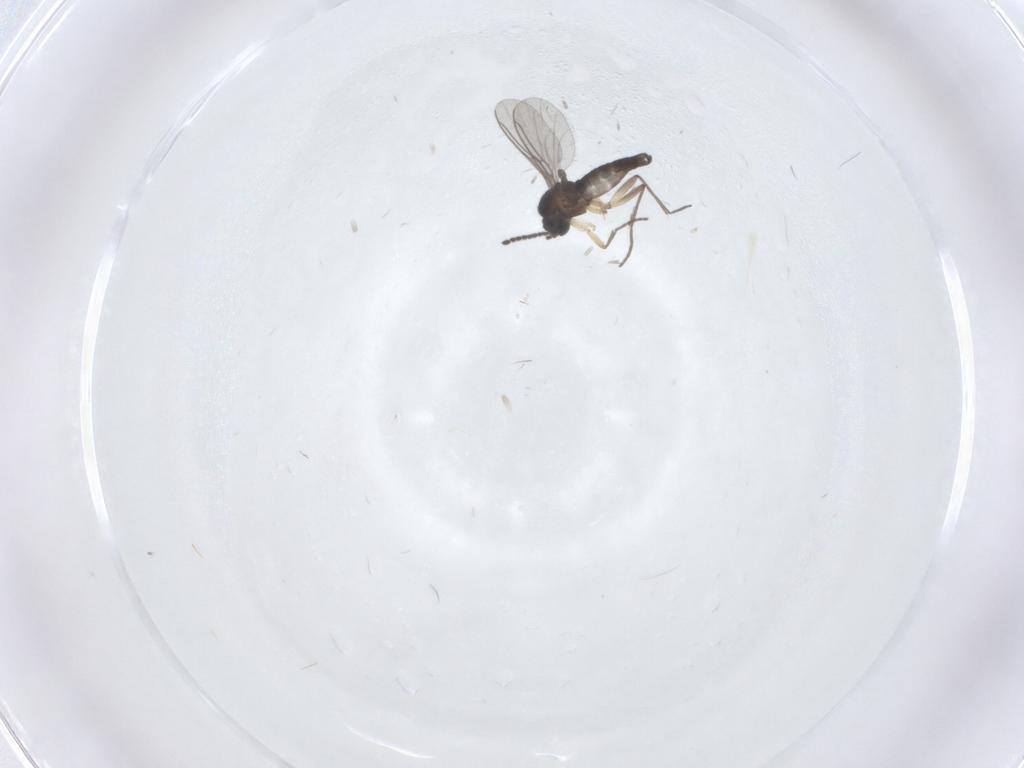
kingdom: Animalia
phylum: Arthropoda
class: Insecta
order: Diptera
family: Sciaridae
